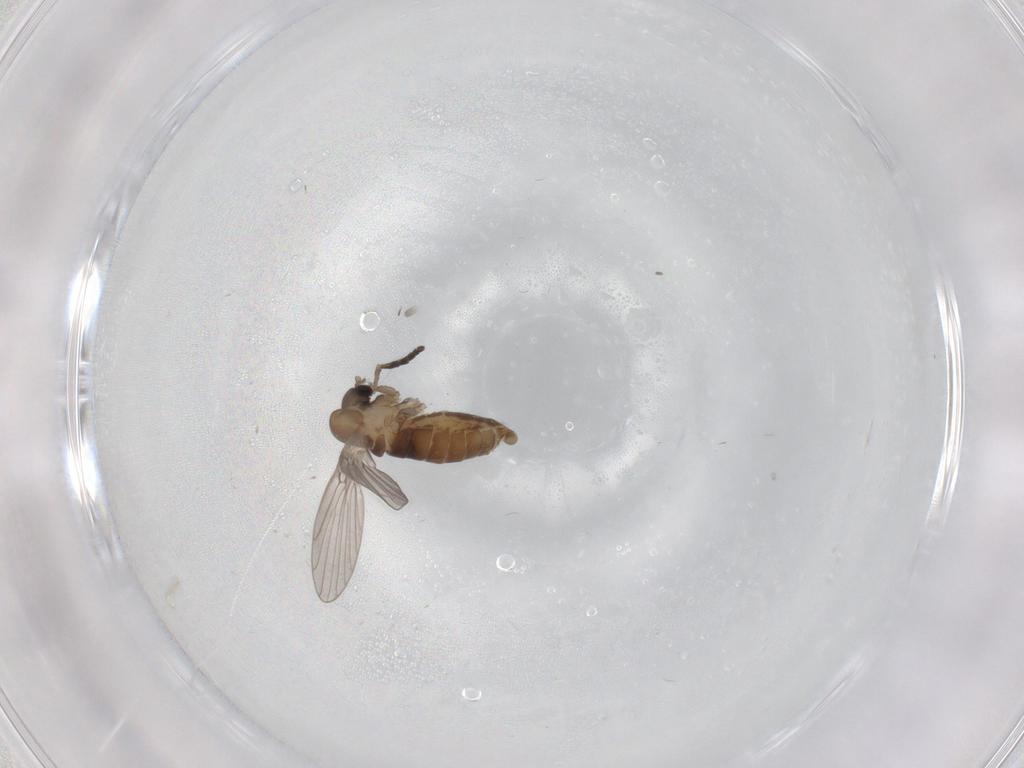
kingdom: Animalia
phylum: Arthropoda
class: Insecta
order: Diptera
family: Psychodidae
